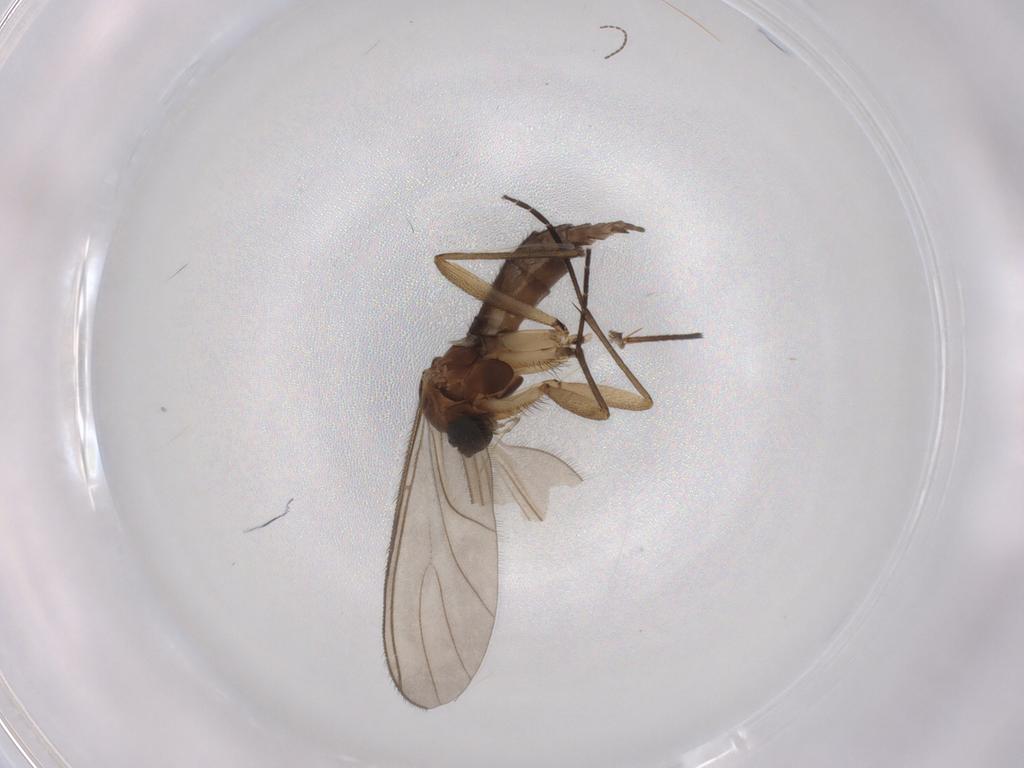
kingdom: Animalia
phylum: Arthropoda
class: Insecta
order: Diptera
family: Sciaridae
